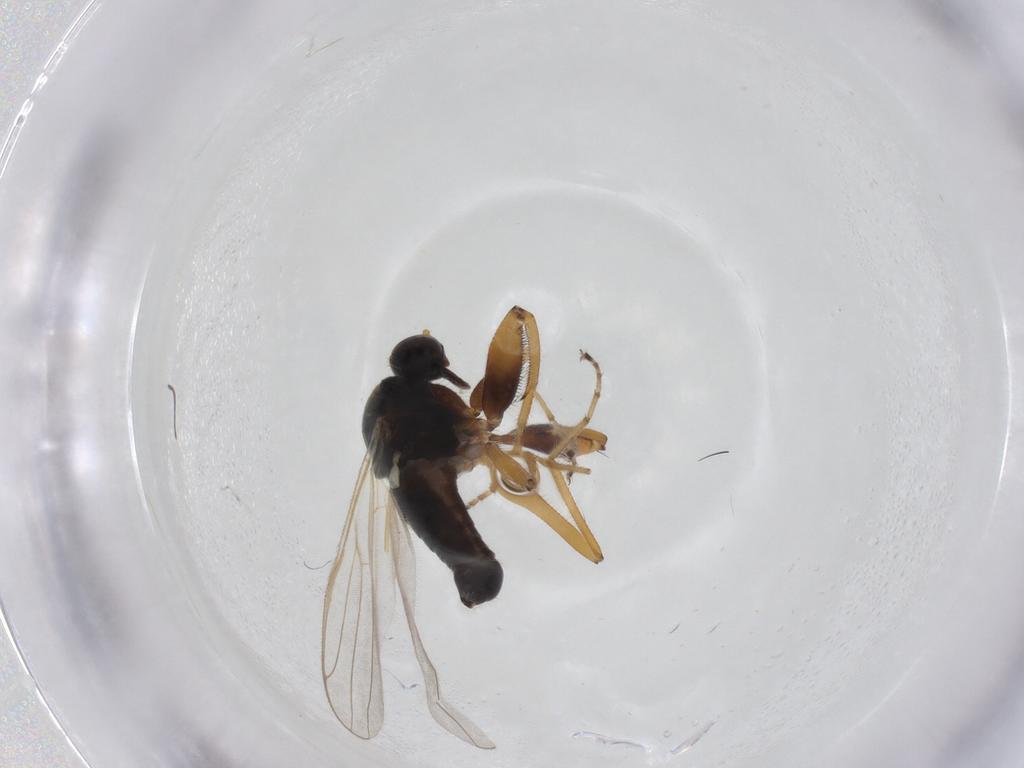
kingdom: Animalia
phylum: Arthropoda
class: Insecta
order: Diptera
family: Hybotidae
